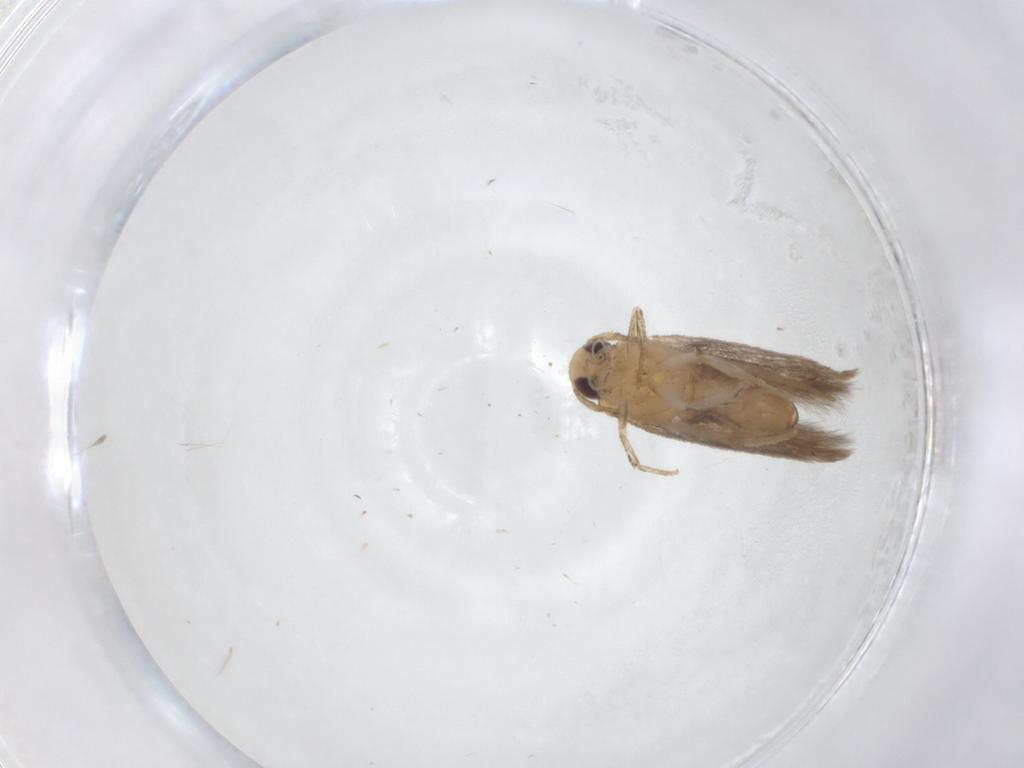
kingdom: Animalia
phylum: Arthropoda
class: Insecta
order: Lepidoptera
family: Cosmopterigidae
